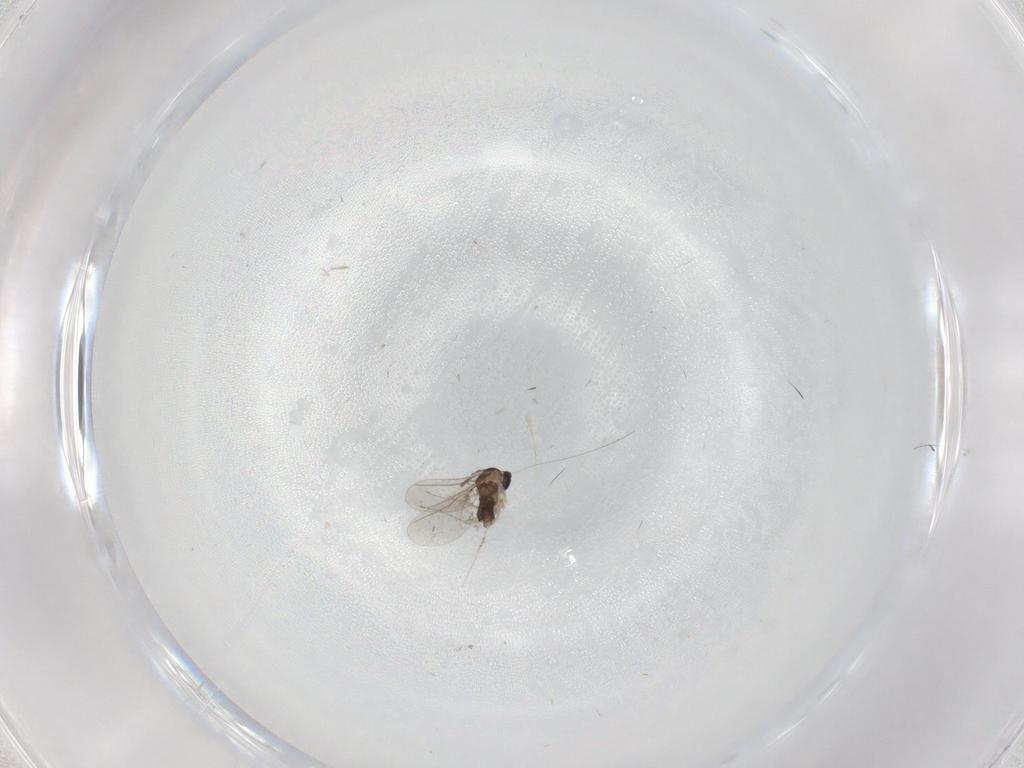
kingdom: Animalia
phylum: Arthropoda
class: Insecta
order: Diptera
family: Cecidomyiidae
